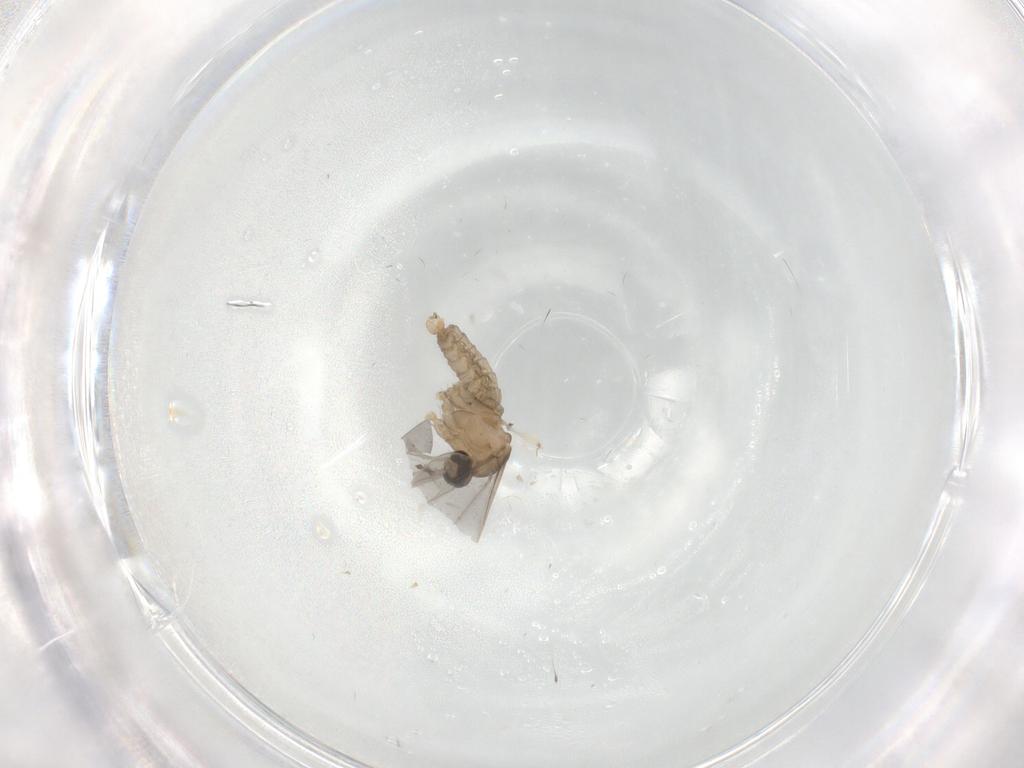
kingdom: Animalia
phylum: Arthropoda
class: Insecta
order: Diptera
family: Cecidomyiidae
